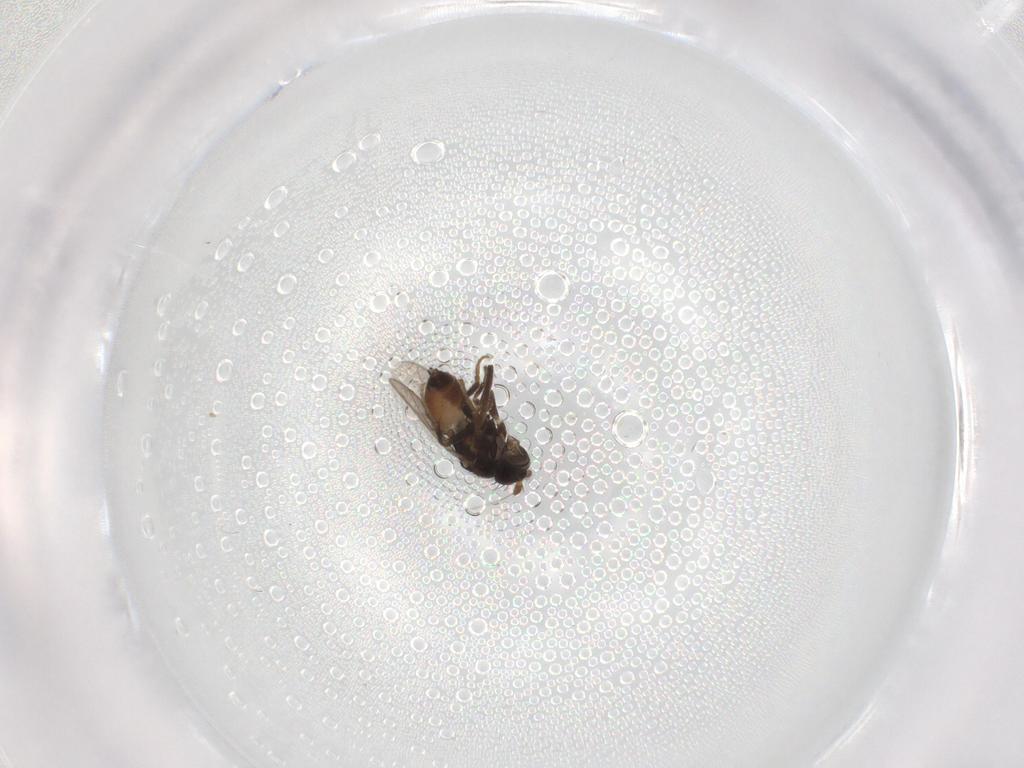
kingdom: Animalia
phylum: Arthropoda
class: Insecta
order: Diptera
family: Sphaeroceridae
